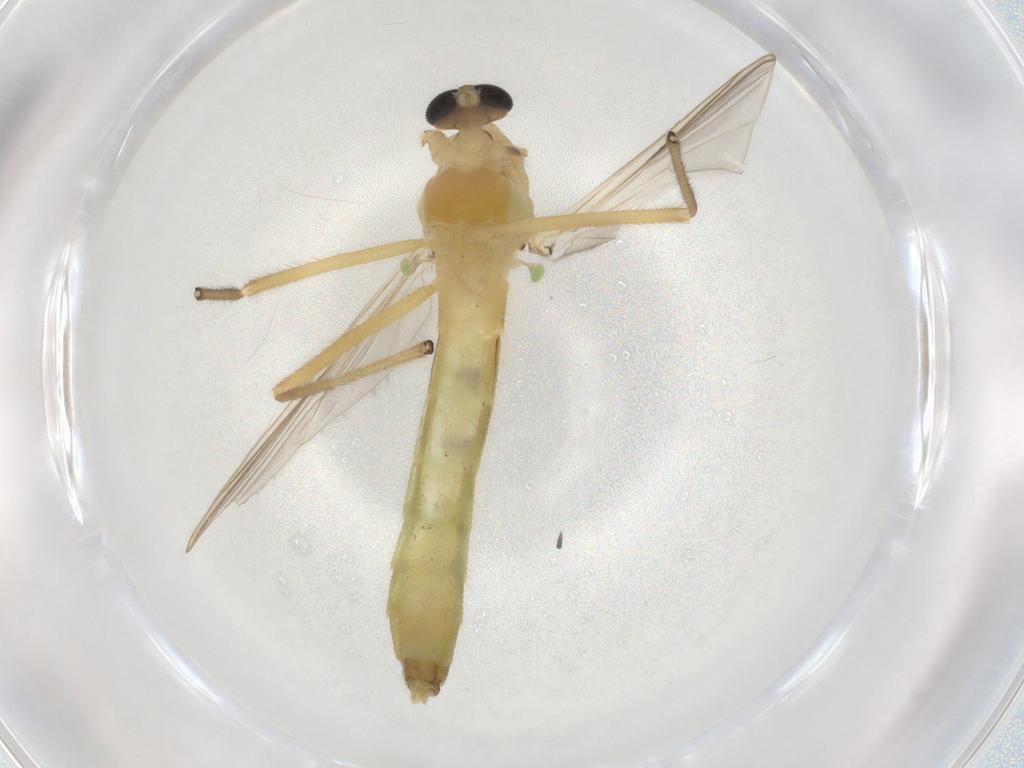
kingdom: Animalia
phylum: Arthropoda
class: Insecta
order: Diptera
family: Psychodidae
